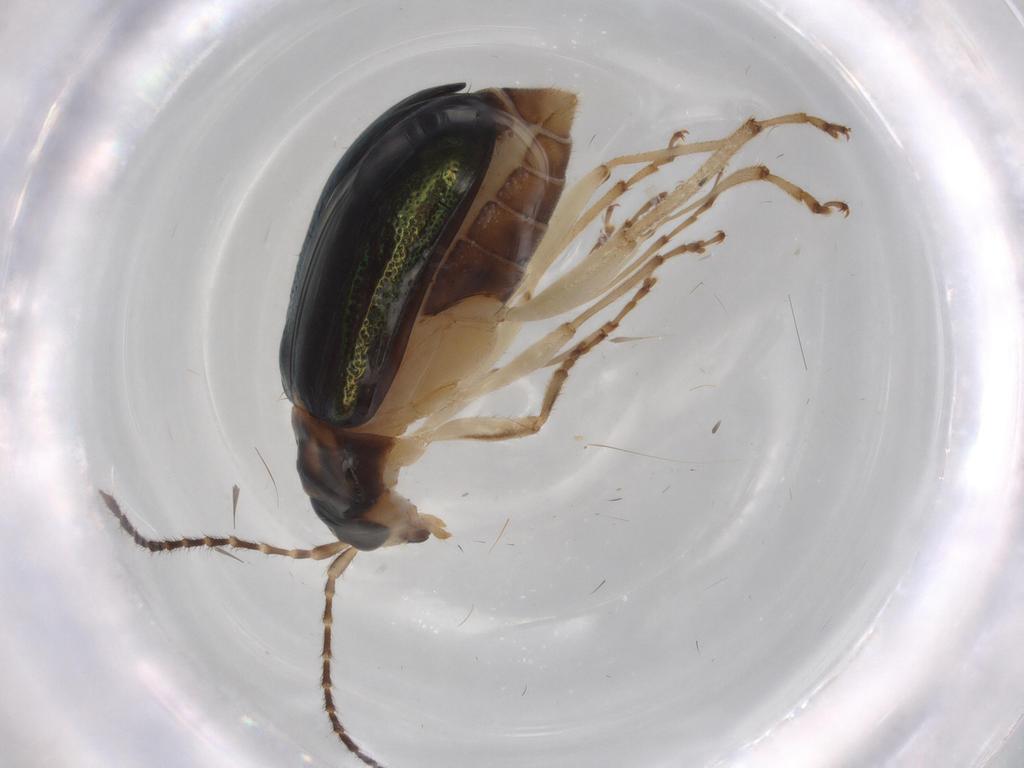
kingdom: Animalia
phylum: Arthropoda
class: Insecta
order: Coleoptera
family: Chrysomelidae
